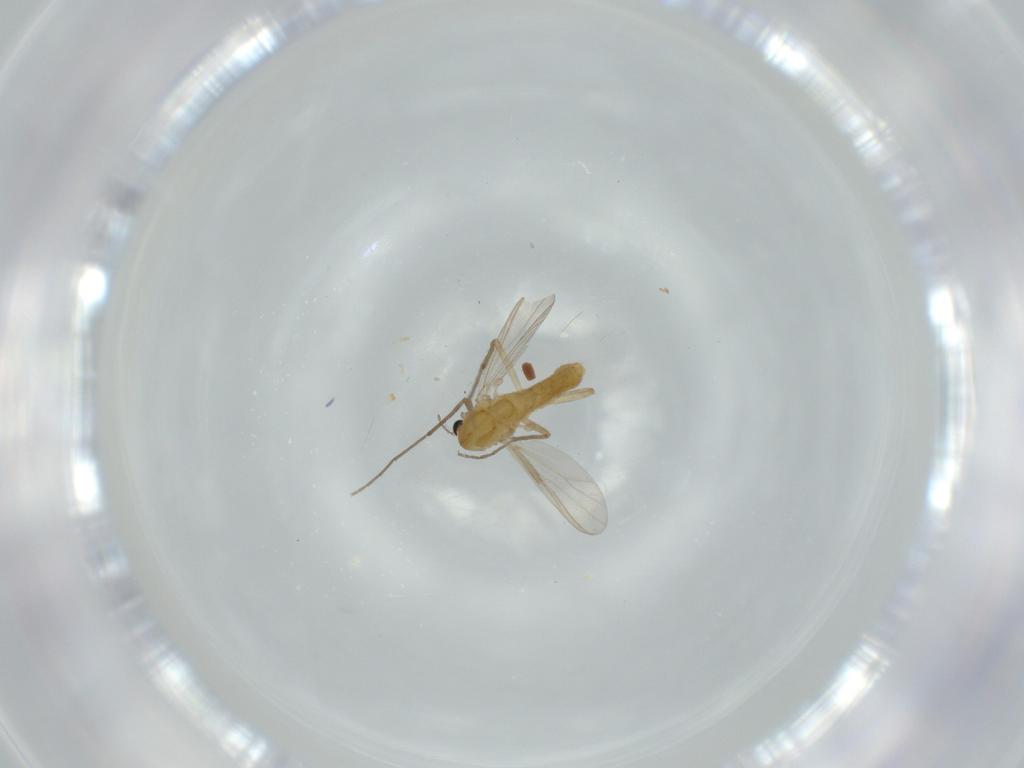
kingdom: Animalia
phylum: Arthropoda
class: Insecta
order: Diptera
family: Chironomidae
